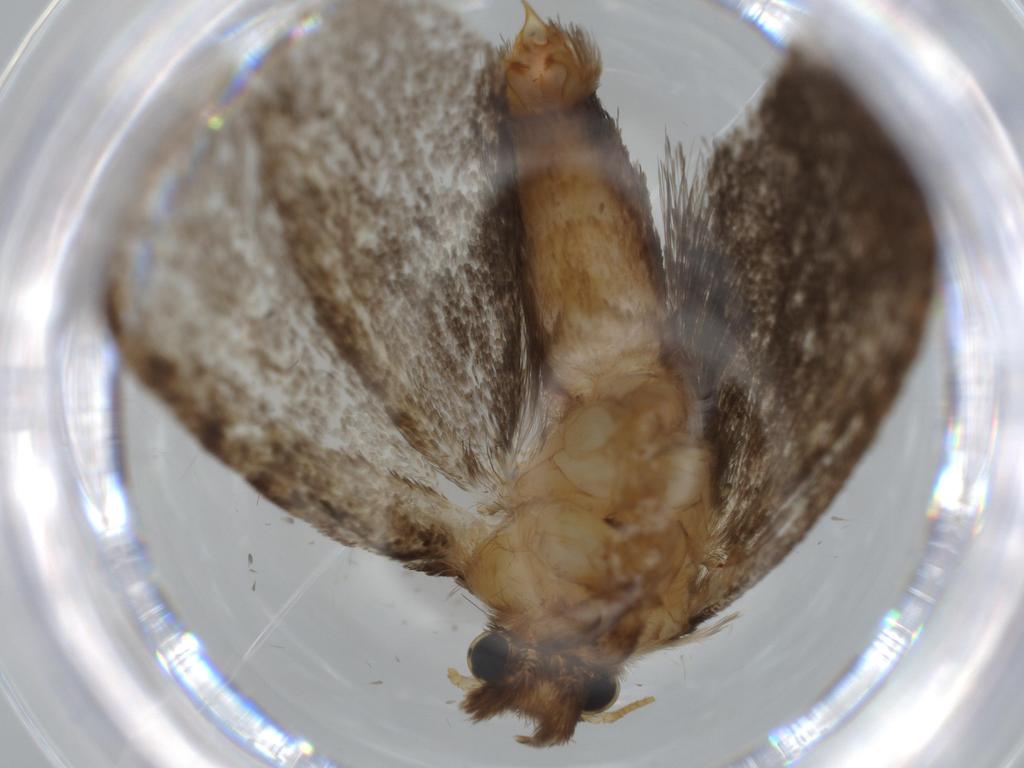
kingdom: Animalia
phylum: Arthropoda
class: Insecta
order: Lepidoptera
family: Tineidae
